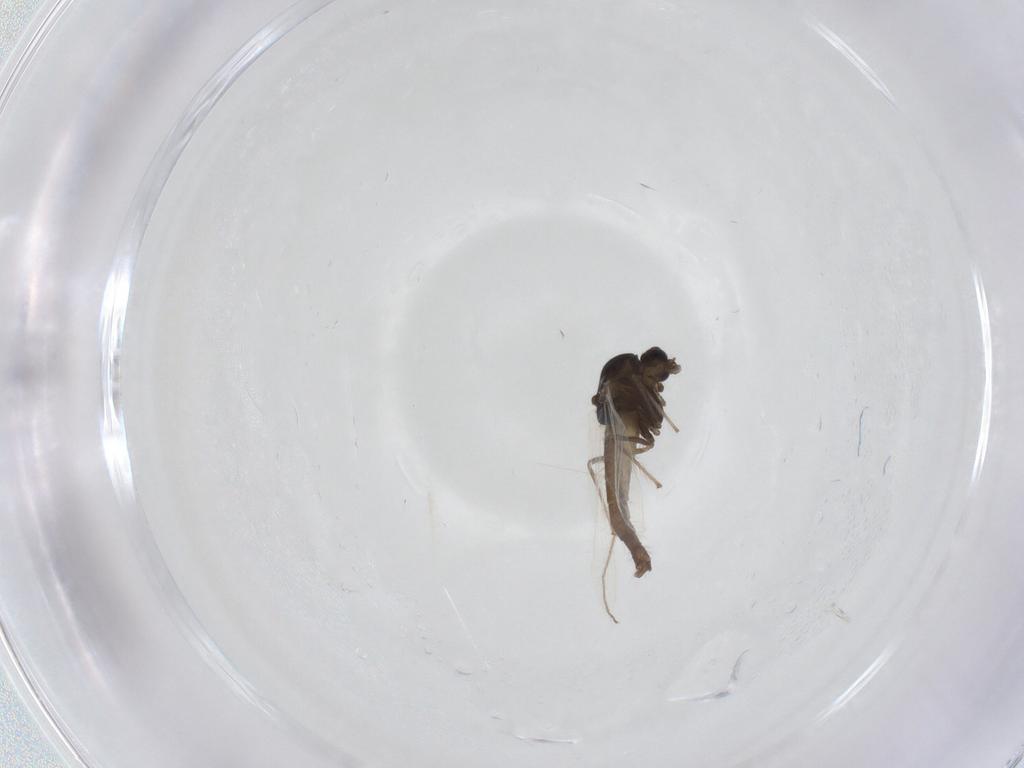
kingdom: Animalia
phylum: Arthropoda
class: Insecta
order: Diptera
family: Chironomidae
